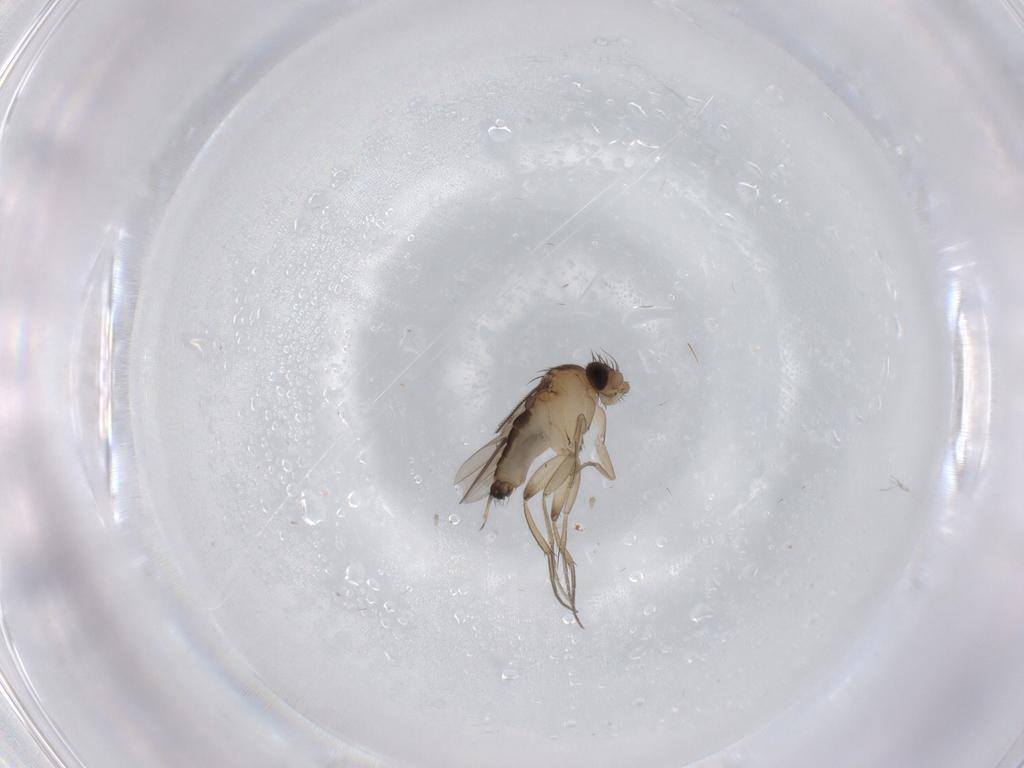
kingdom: Animalia
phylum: Arthropoda
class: Insecta
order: Diptera
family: Phoridae
